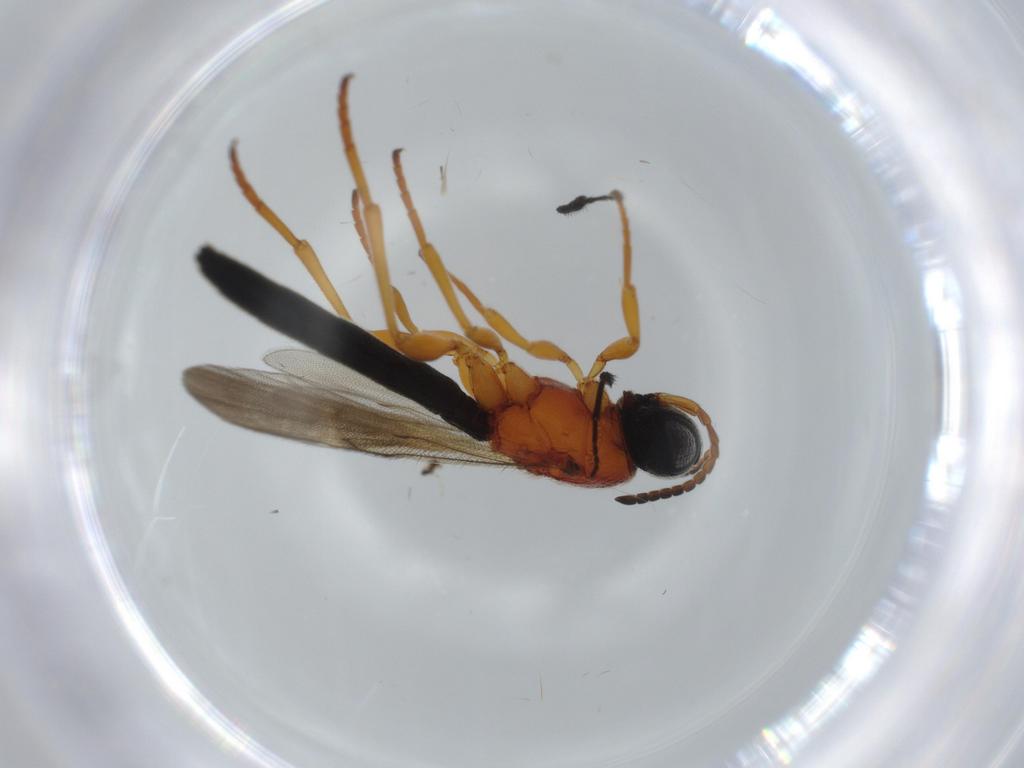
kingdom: Animalia
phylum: Arthropoda
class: Insecta
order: Hymenoptera
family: Scelionidae
